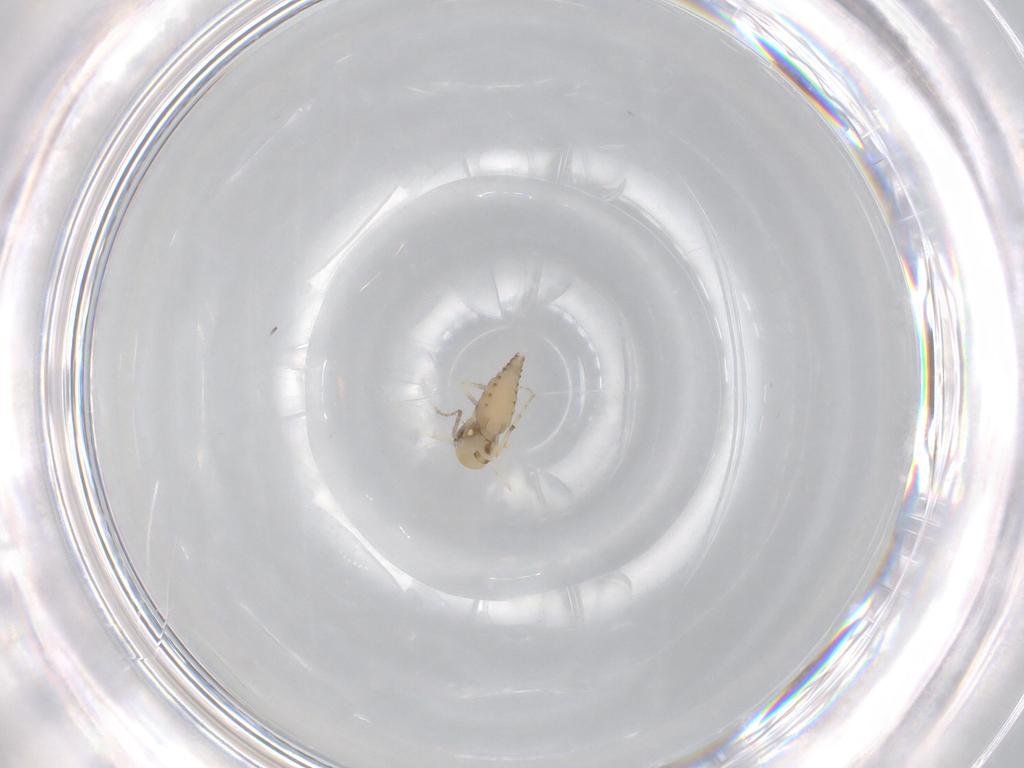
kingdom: Animalia
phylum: Arthropoda
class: Insecta
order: Diptera
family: Ceratopogonidae
